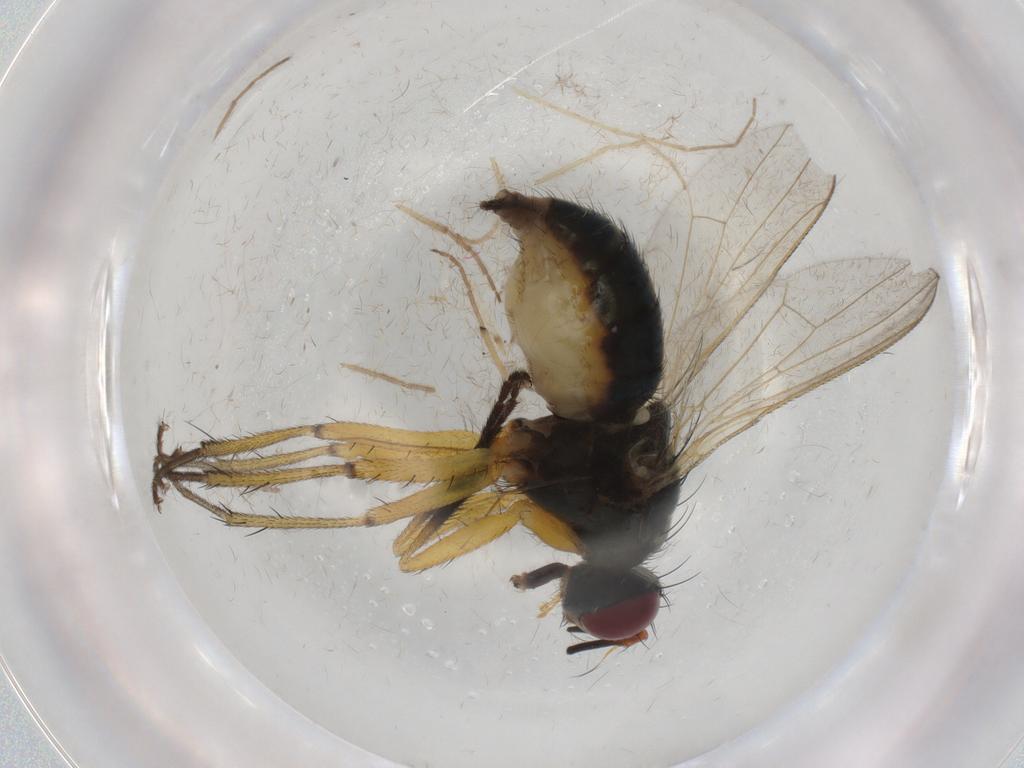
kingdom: Animalia
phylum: Arthropoda
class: Insecta
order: Diptera
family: Muscidae
